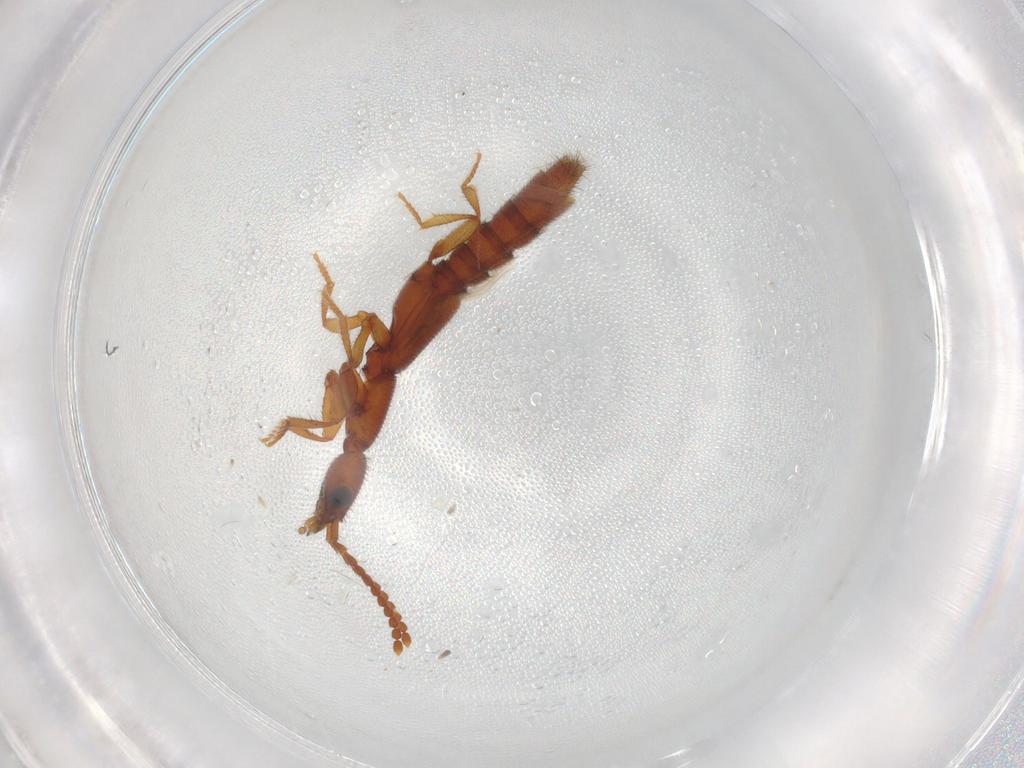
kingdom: Animalia
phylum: Arthropoda
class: Insecta
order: Coleoptera
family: Staphylinidae
